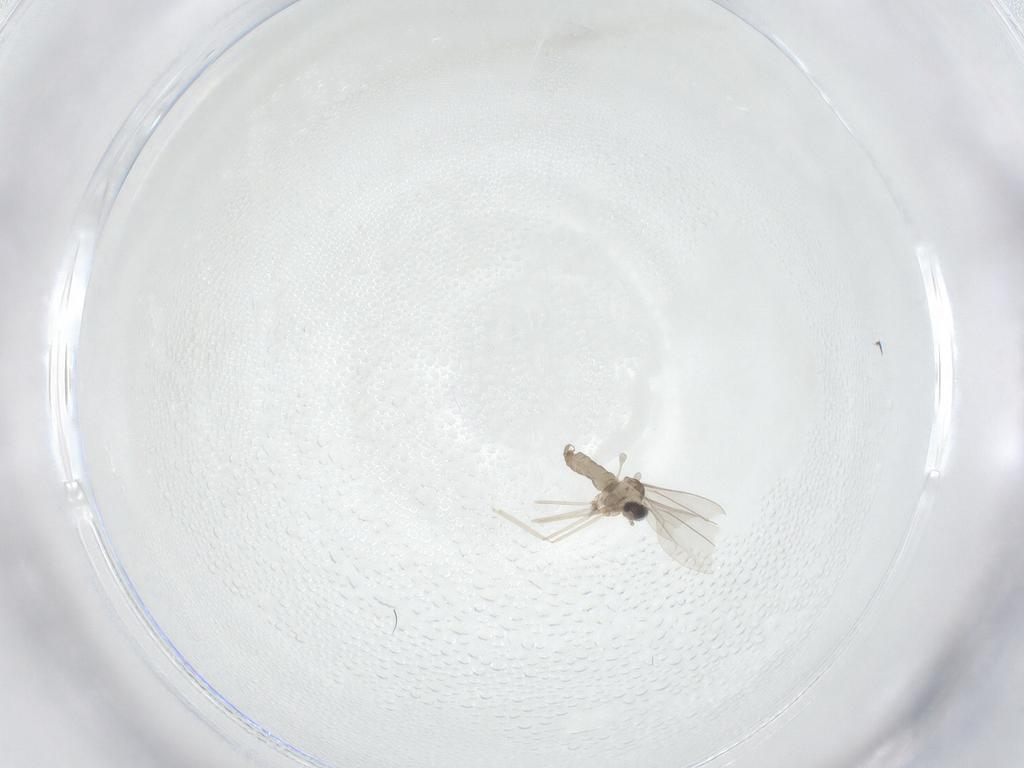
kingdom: Animalia
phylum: Arthropoda
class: Insecta
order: Diptera
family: Cecidomyiidae
